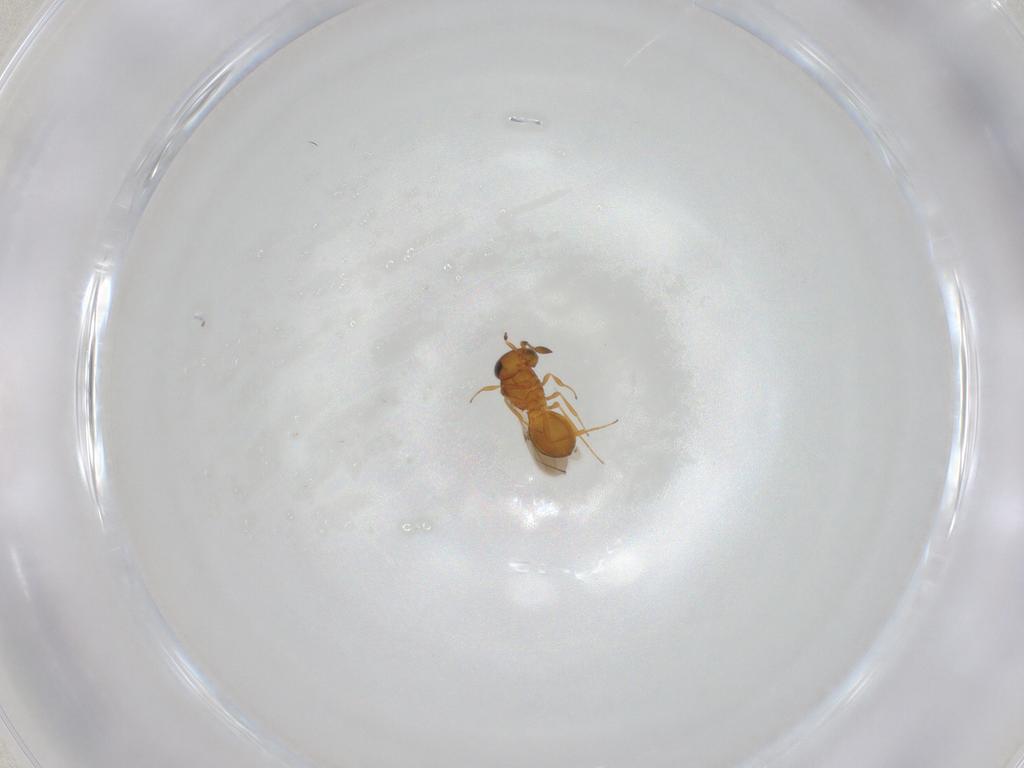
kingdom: Animalia
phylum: Arthropoda
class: Insecta
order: Hymenoptera
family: Scelionidae
